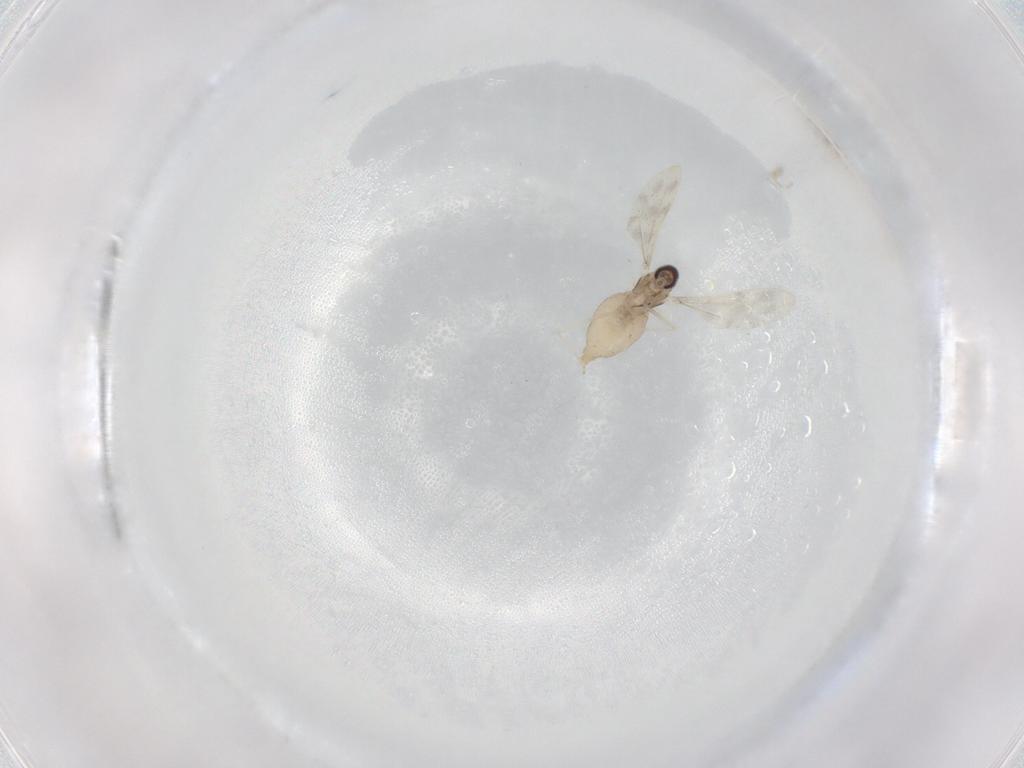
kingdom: Animalia
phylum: Arthropoda
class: Insecta
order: Diptera
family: Cecidomyiidae
